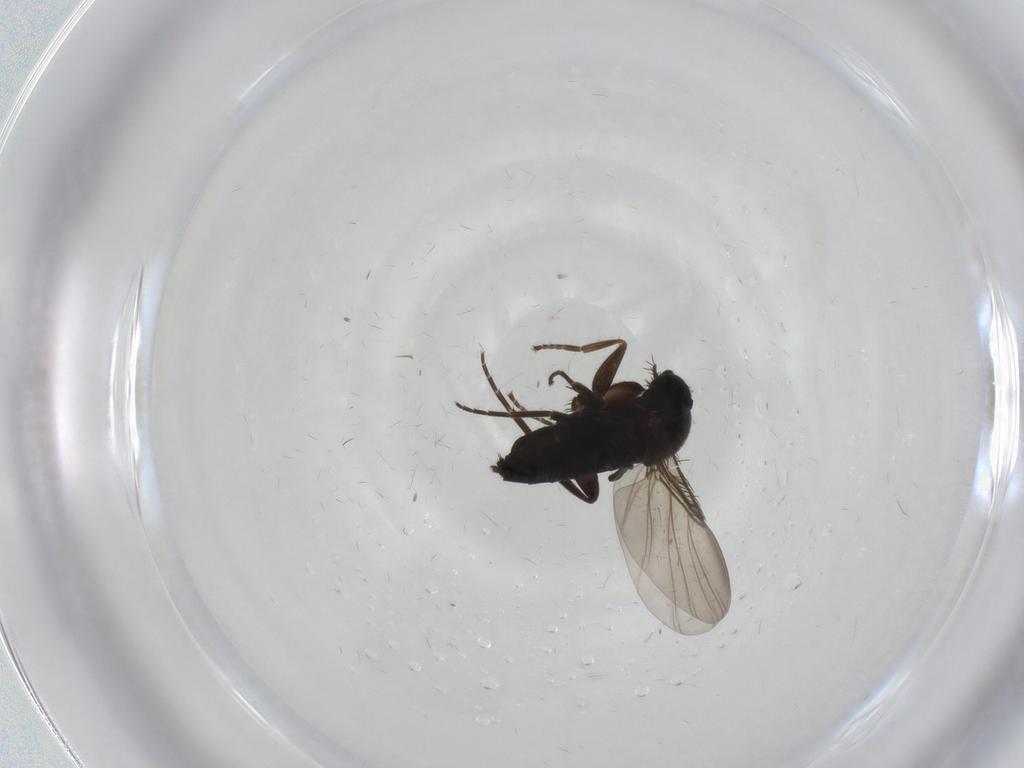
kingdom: Animalia
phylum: Arthropoda
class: Insecta
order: Diptera
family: Phoridae
